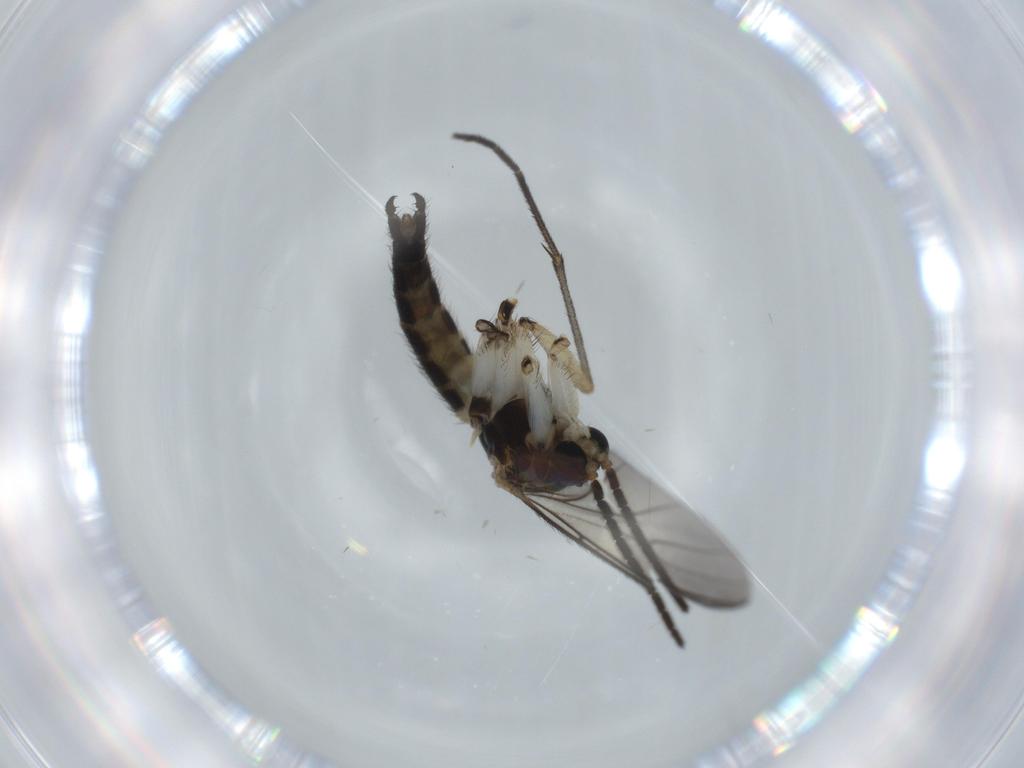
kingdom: Animalia
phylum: Arthropoda
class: Insecta
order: Diptera
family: Sciaridae
